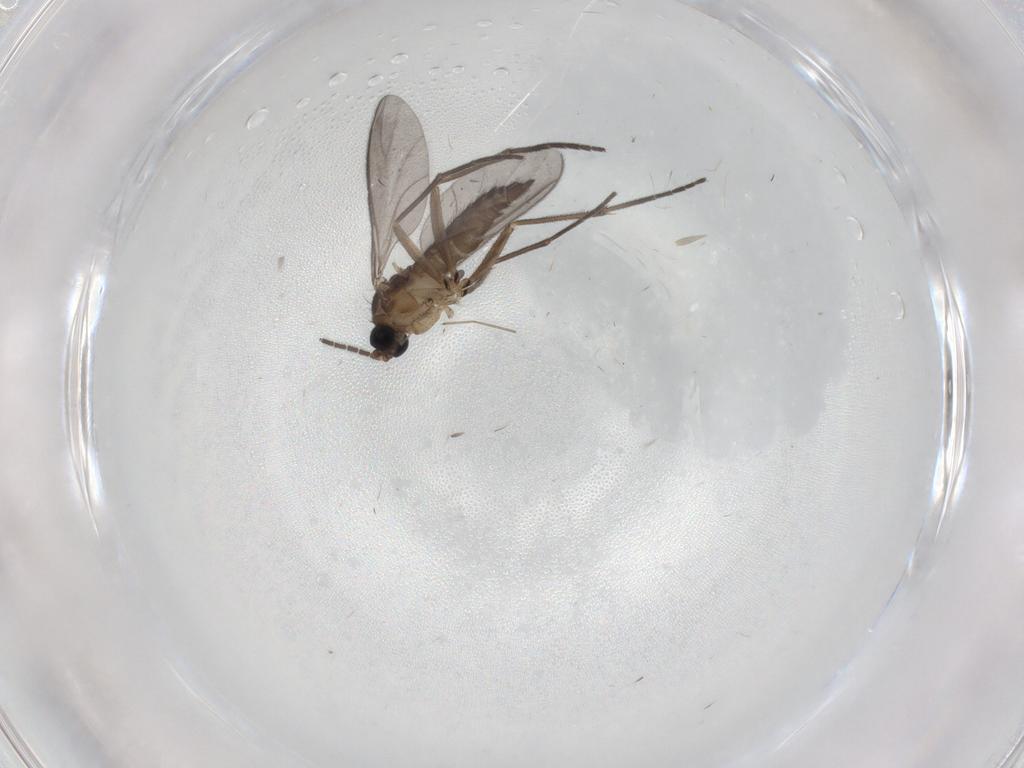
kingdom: Animalia
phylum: Arthropoda
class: Insecta
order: Diptera
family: Sciaridae
